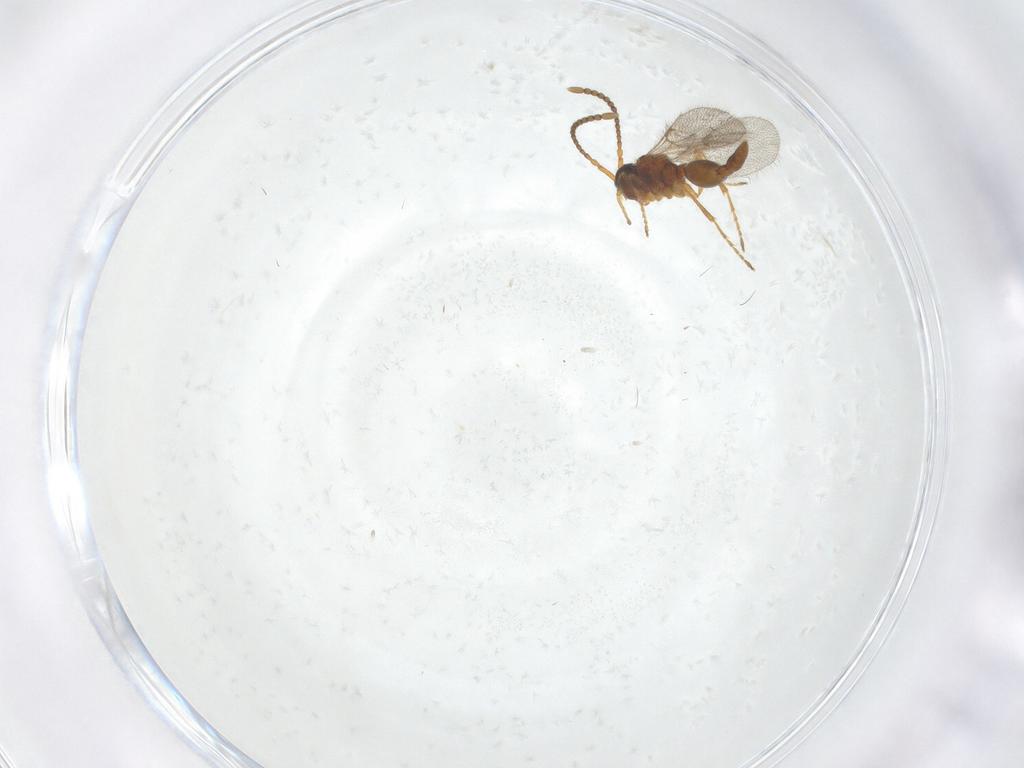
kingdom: Animalia
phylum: Arthropoda
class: Insecta
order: Hymenoptera
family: Diapriidae
